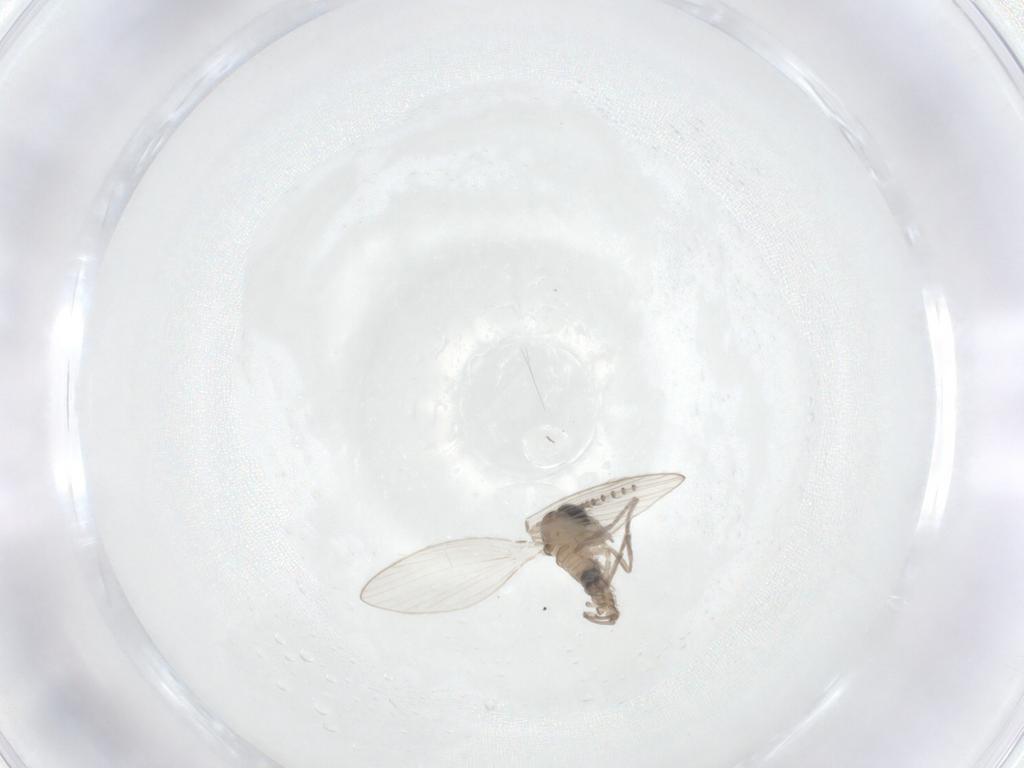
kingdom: Animalia
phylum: Arthropoda
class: Insecta
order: Diptera
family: Psychodidae
